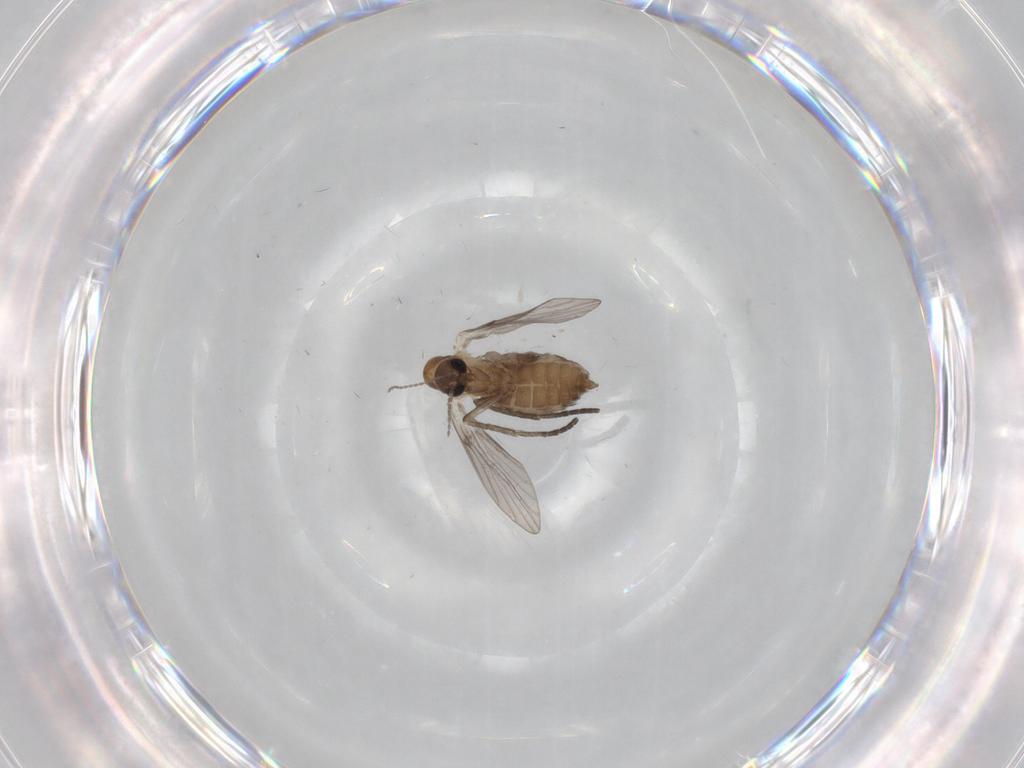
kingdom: Animalia
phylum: Arthropoda
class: Insecta
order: Diptera
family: Psychodidae
